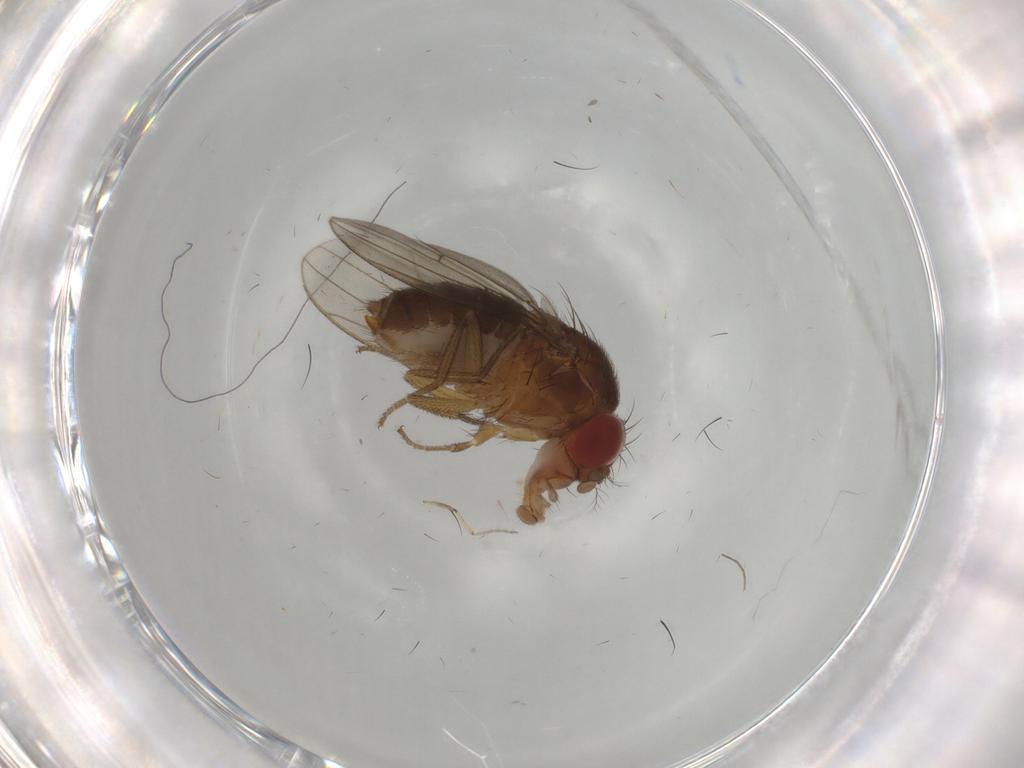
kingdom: Animalia
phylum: Arthropoda
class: Insecta
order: Diptera
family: Drosophilidae
